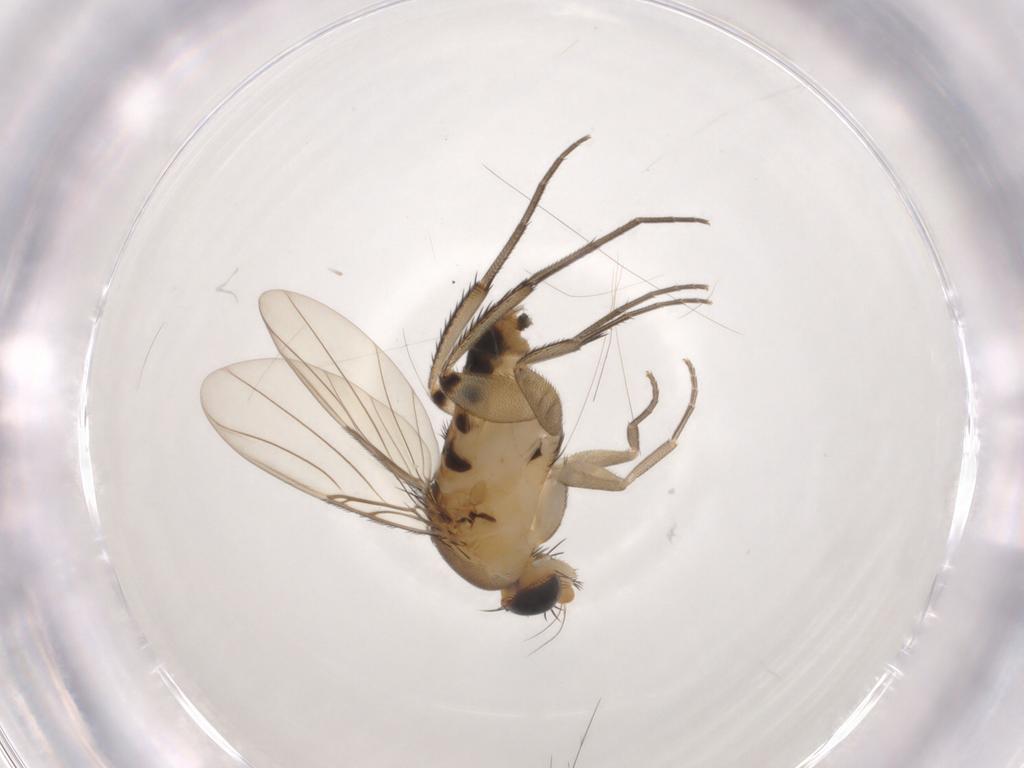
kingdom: Animalia
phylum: Arthropoda
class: Insecta
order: Diptera
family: Phoridae
